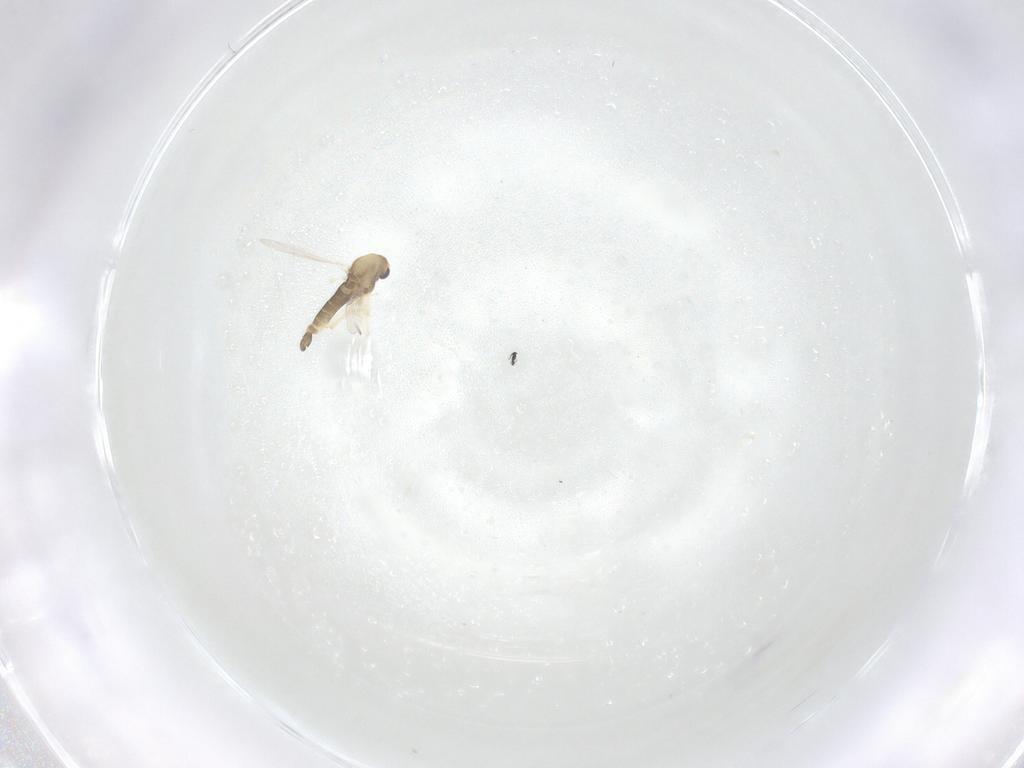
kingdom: Animalia
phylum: Arthropoda
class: Insecta
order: Diptera
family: Chironomidae
